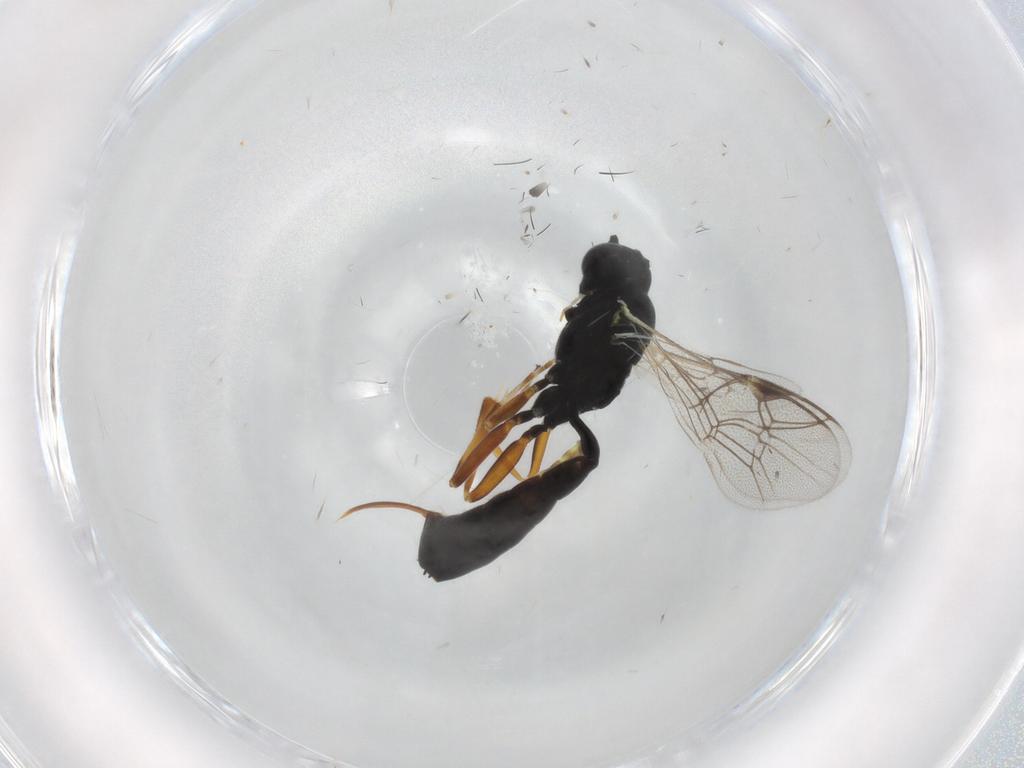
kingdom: Animalia
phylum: Arthropoda
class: Insecta
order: Hymenoptera
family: Ichneumonidae
